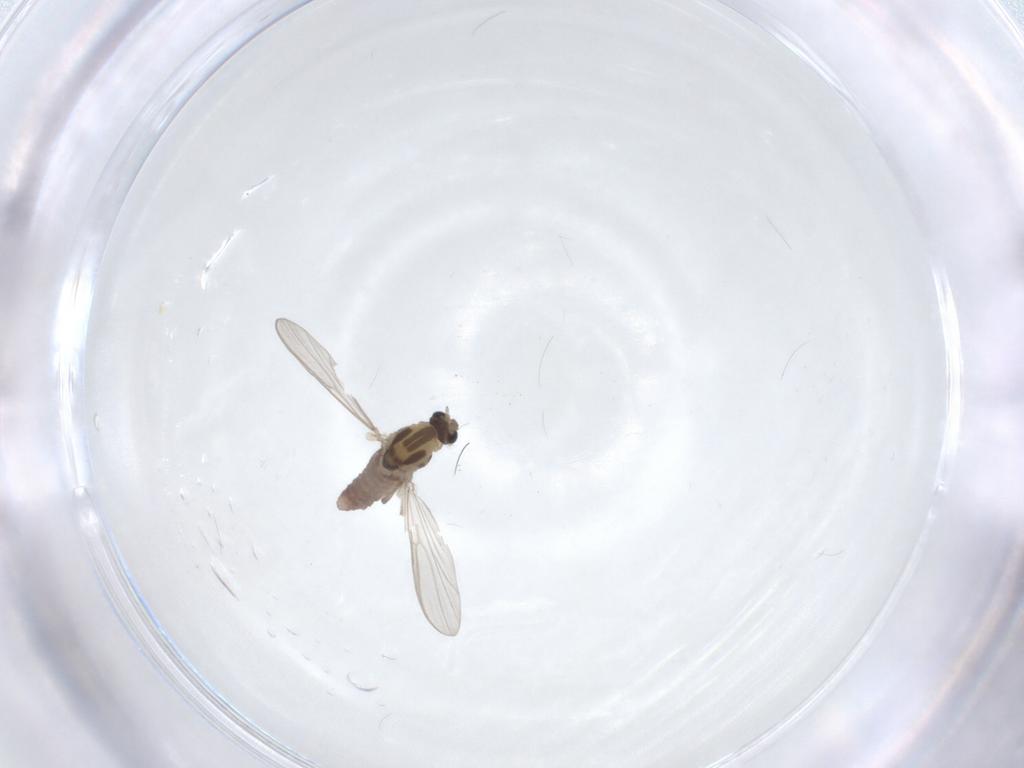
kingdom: Animalia
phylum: Arthropoda
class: Insecta
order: Diptera
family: Chironomidae
